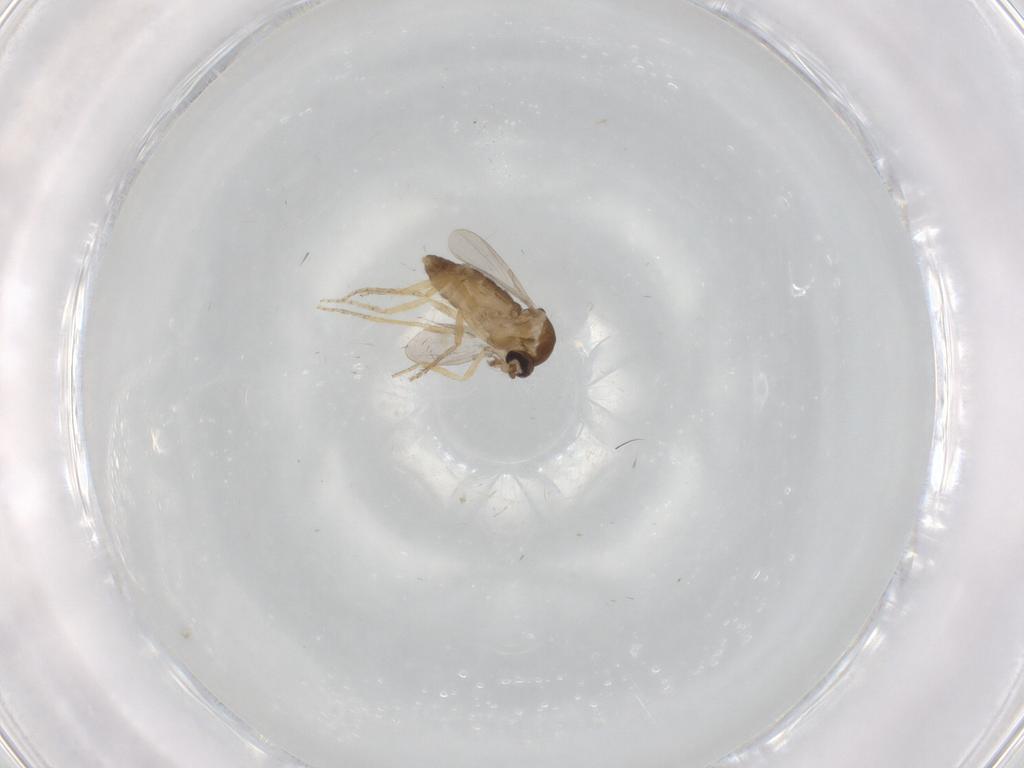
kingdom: Animalia
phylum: Arthropoda
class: Insecta
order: Diptera
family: Ceratopogonidae
